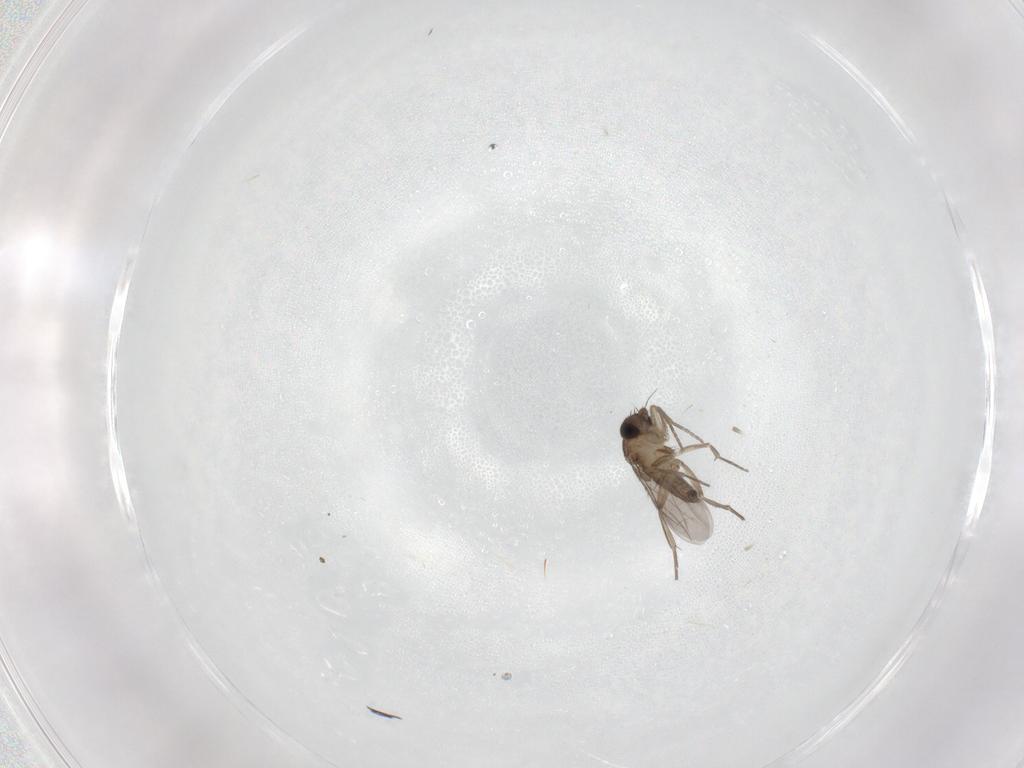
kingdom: Animalia
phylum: Arthropoda
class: Insecta
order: Diptera
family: Phoridae
